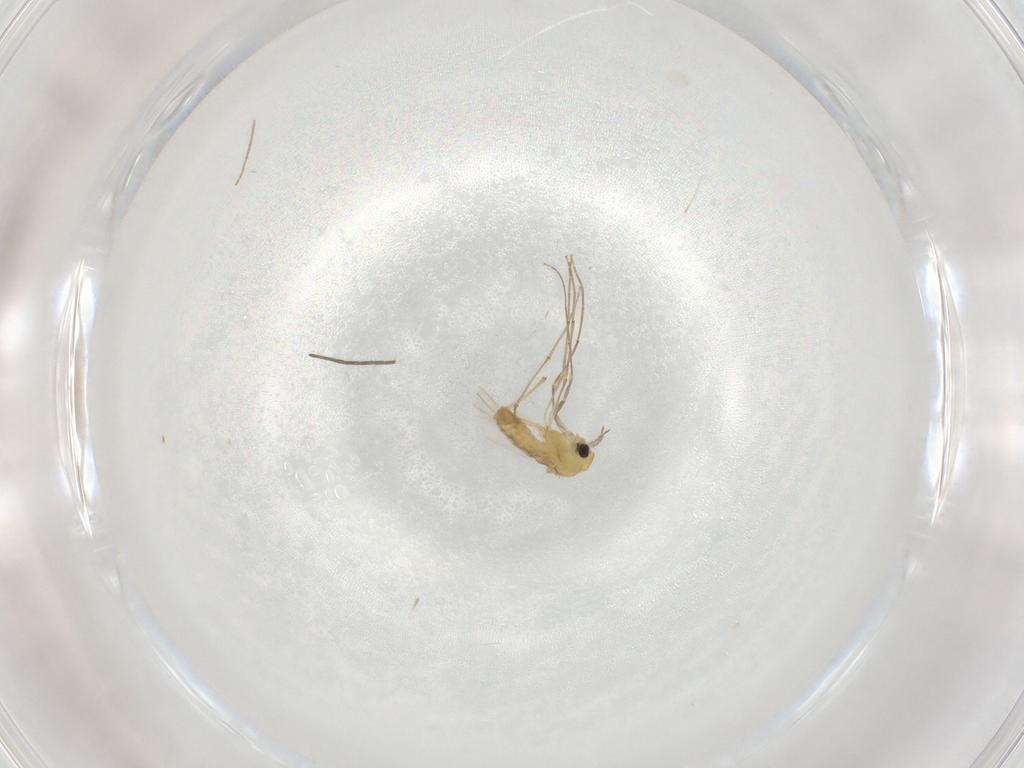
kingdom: Animalia
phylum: Arthropoda
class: Insecta
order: Diptera
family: Chironomidae
